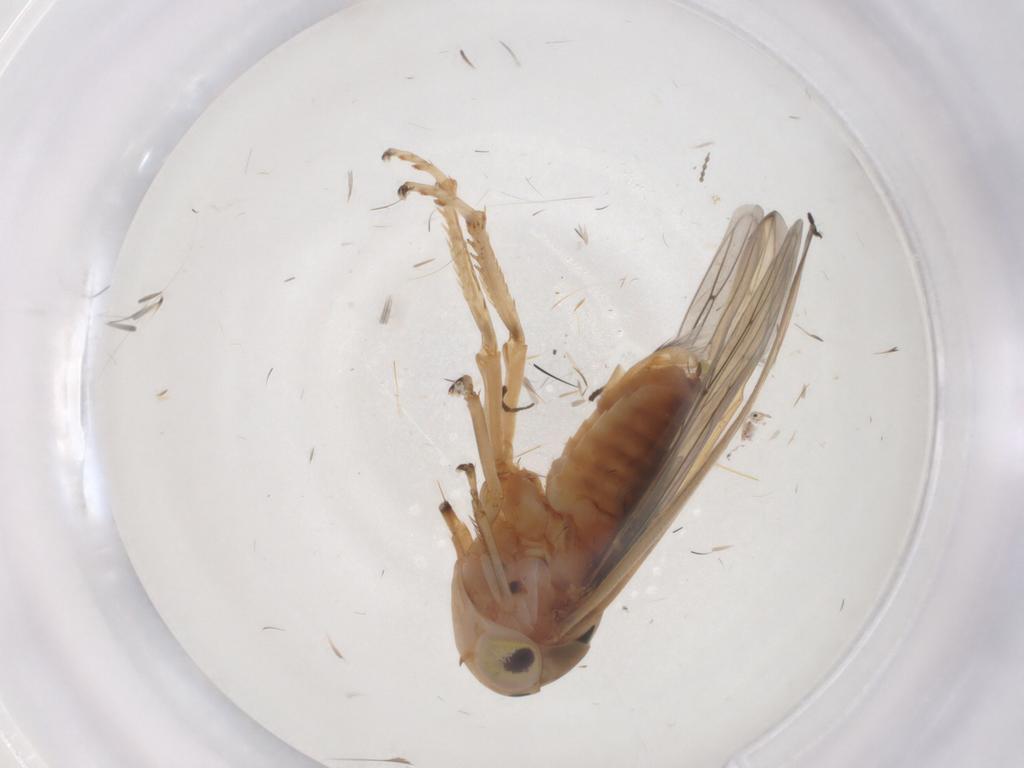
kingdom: Animalia
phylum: Arthropoda
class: Insecta
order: Hemiptera
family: Cicadellidae
